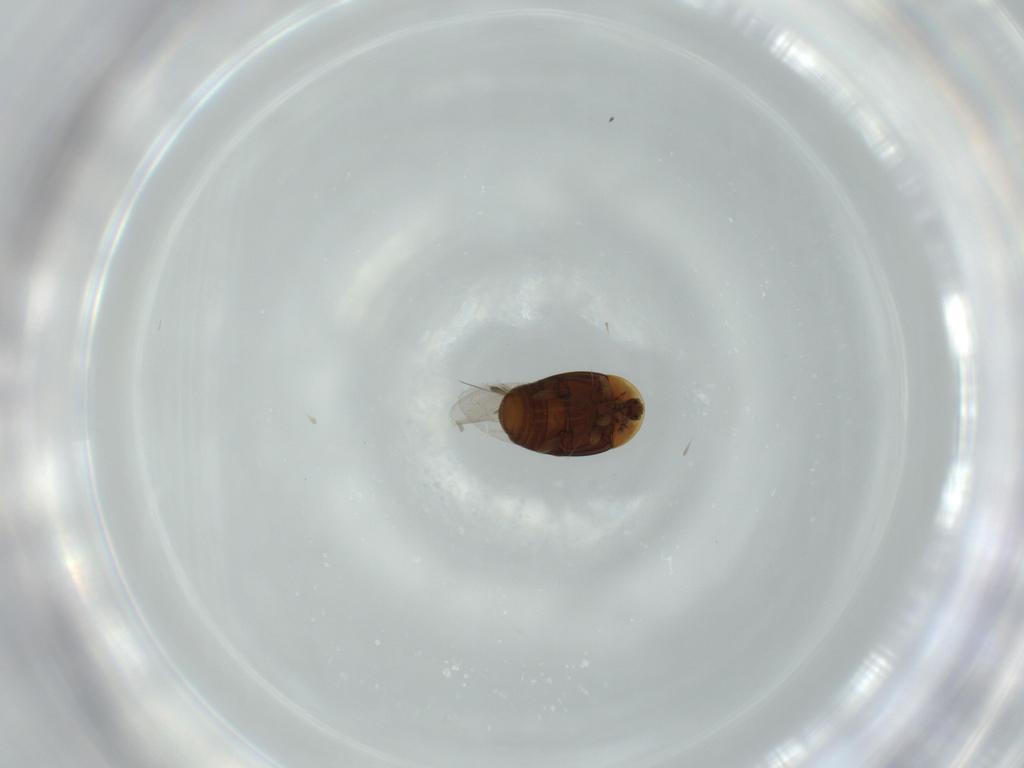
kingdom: Animalia
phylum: Arthropoda
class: Insecta
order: Coleoptera
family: Corylophidae
